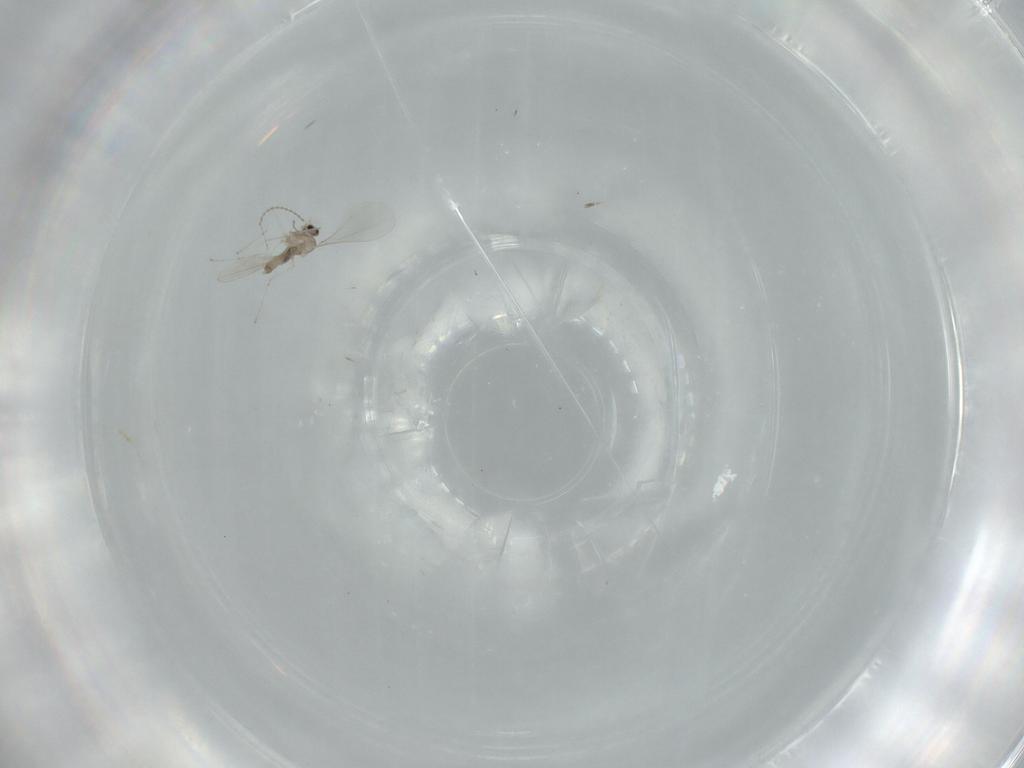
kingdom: Animalia
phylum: Arthropoda
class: Insecta
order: Diptera
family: Cecidomyiidae
